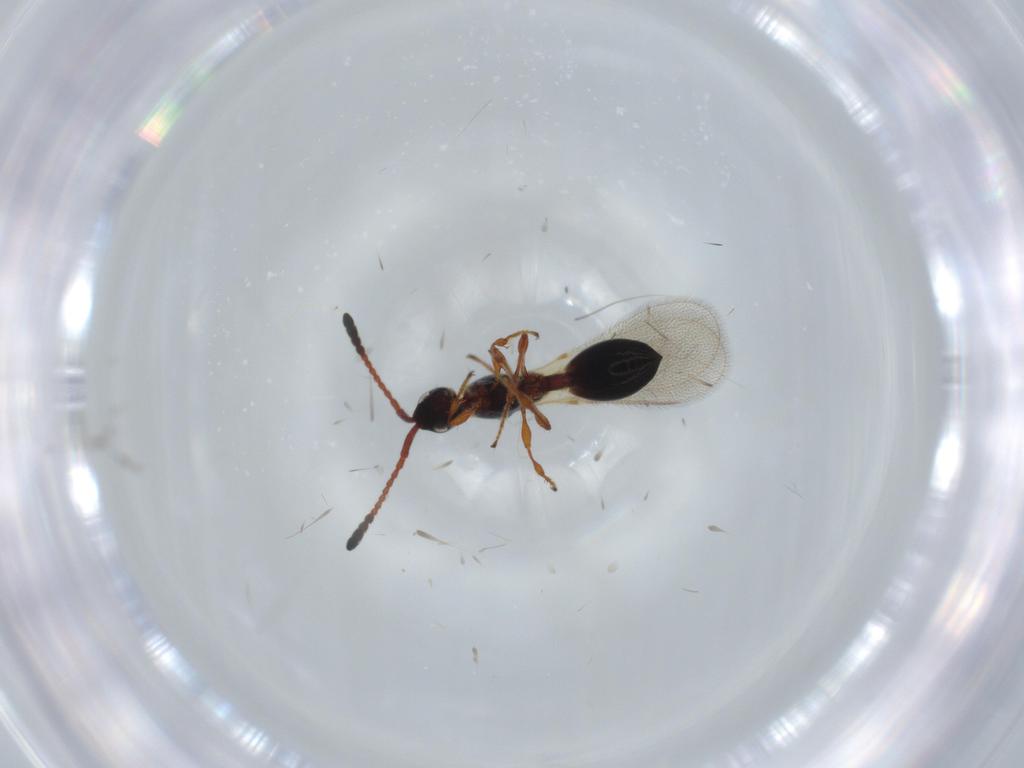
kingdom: Animalia
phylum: Arthropoda
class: Insecta
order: Hymenoptera
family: Diapriidae
